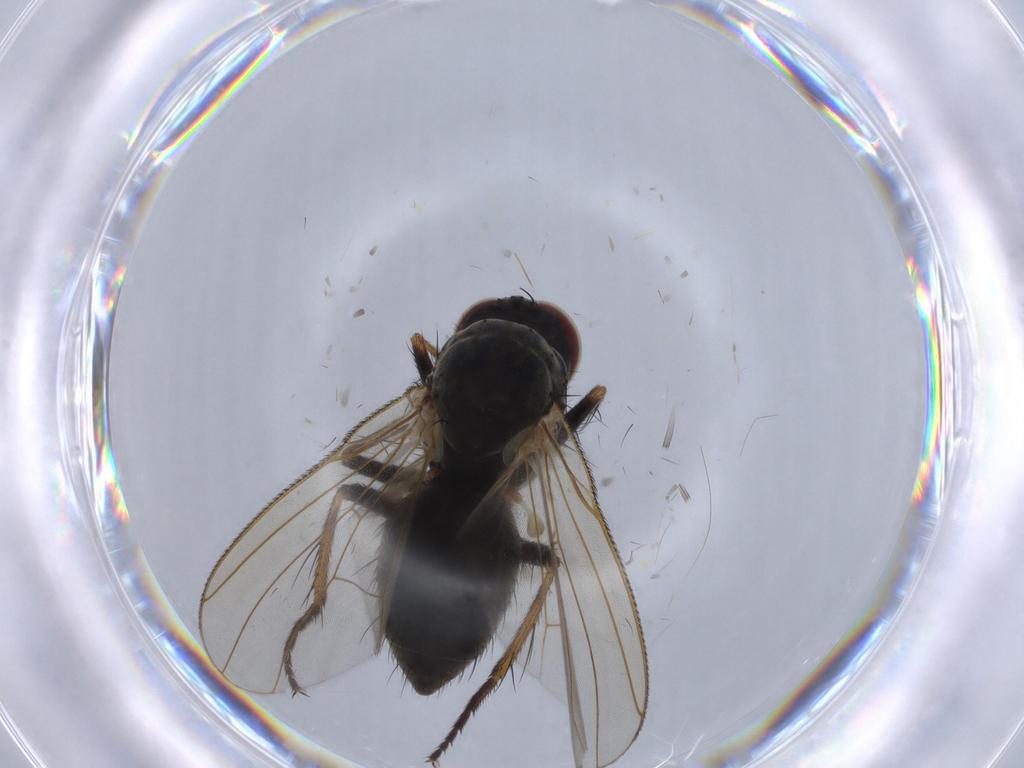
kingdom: Animalia
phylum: Arthropoda
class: Insecta
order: Diptera
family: Muscidae
